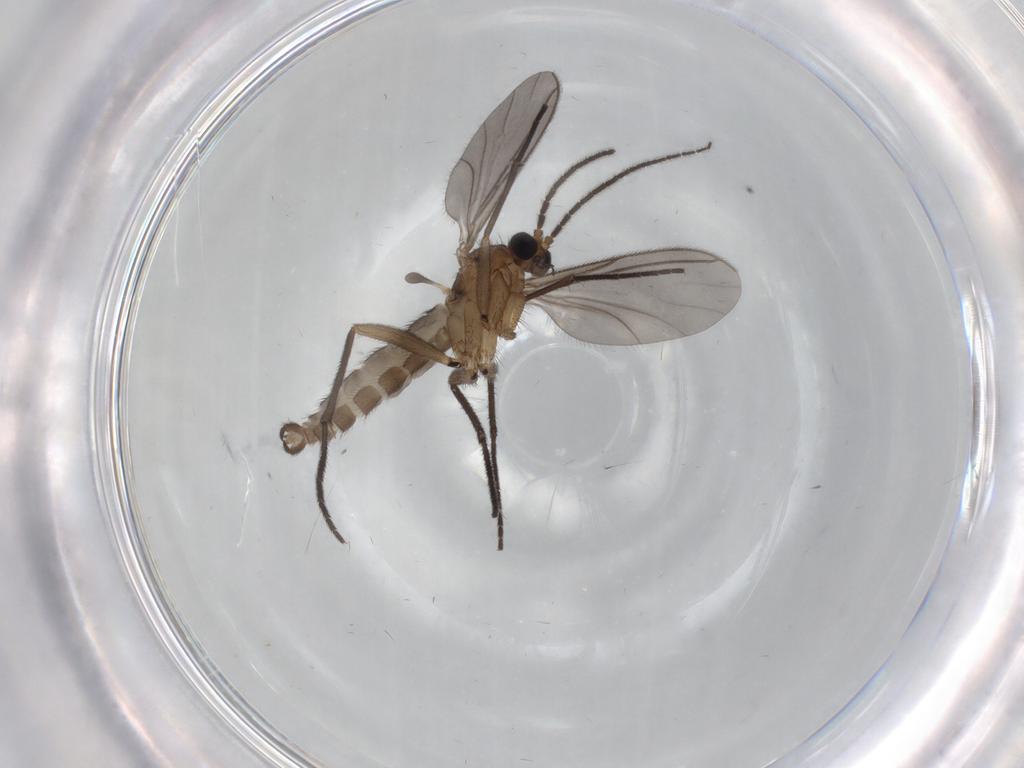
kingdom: Animalia
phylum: Arthropoda
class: Insecta
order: Diptera
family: Sciaridae
